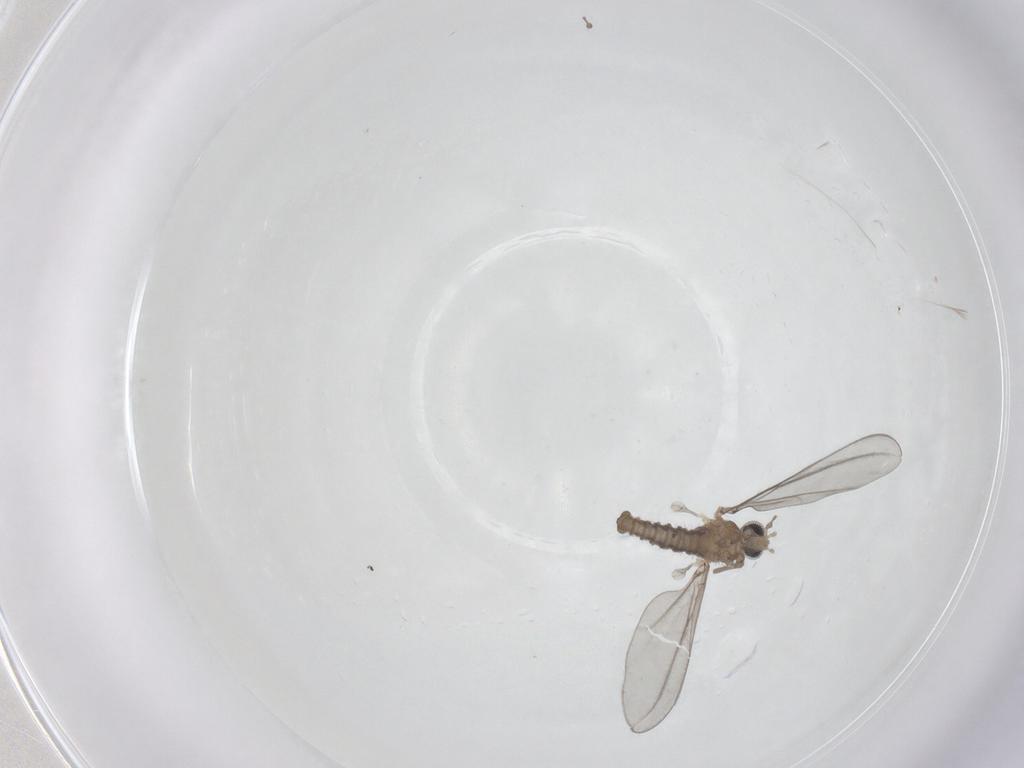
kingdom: Animalia
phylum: Arthropoda
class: Insecta
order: Diptera
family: Cecidomyiidae
